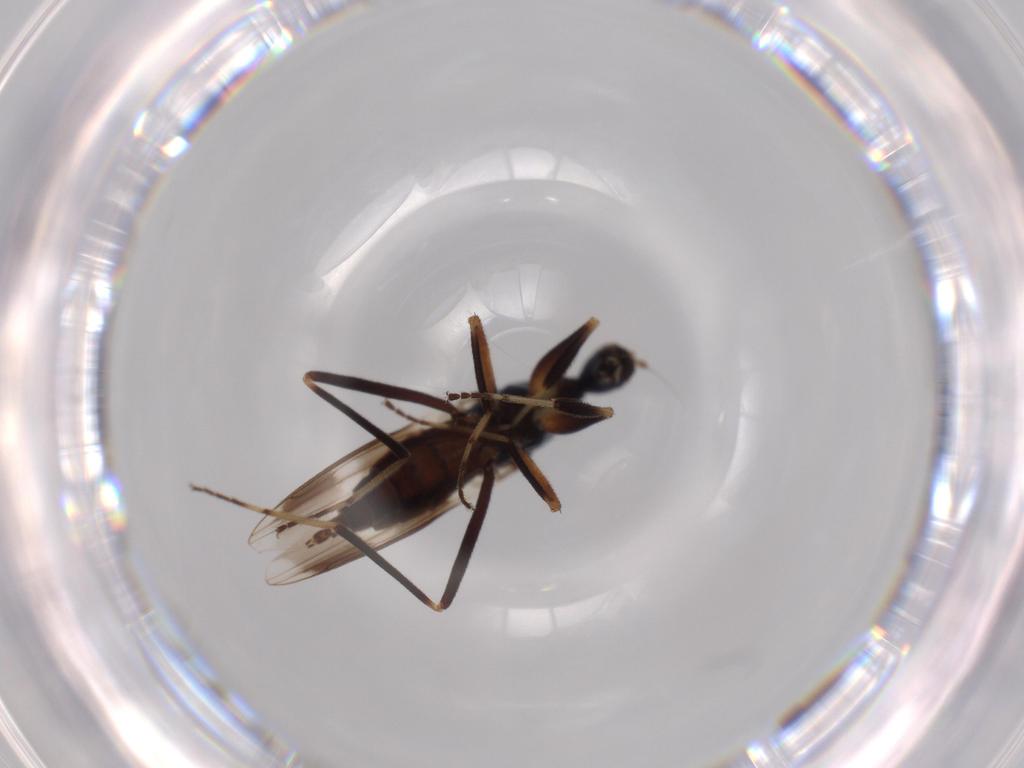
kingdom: Animalia
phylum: Arthropoda
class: Insecta
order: Diptera
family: Hybotidae
